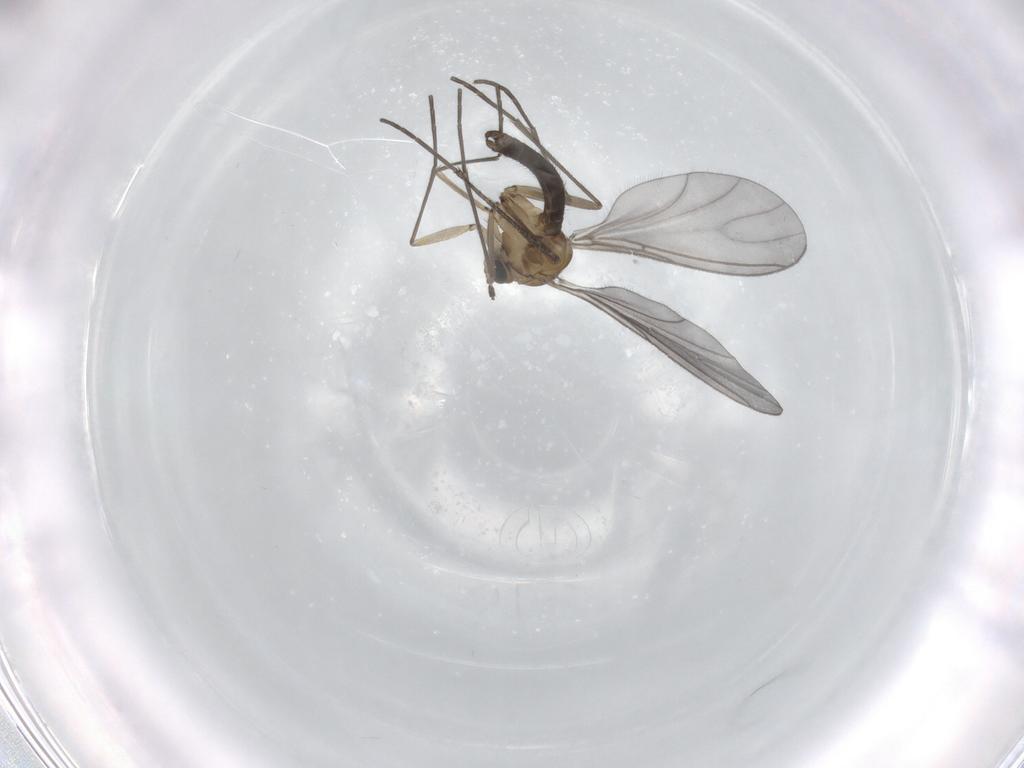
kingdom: Animalia
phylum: Arthropoda
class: Insecta
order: Diptera
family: Sciaridae
